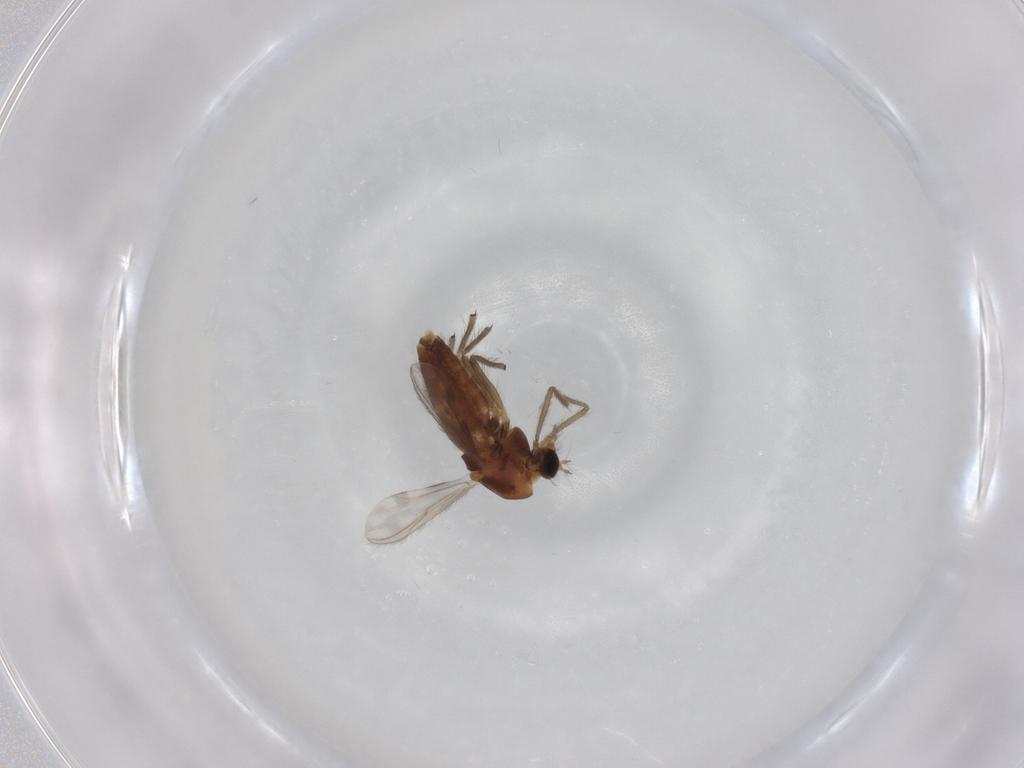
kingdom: Animalia
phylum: Arthropoda
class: Insecta
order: Diptera
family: Chironomidae
